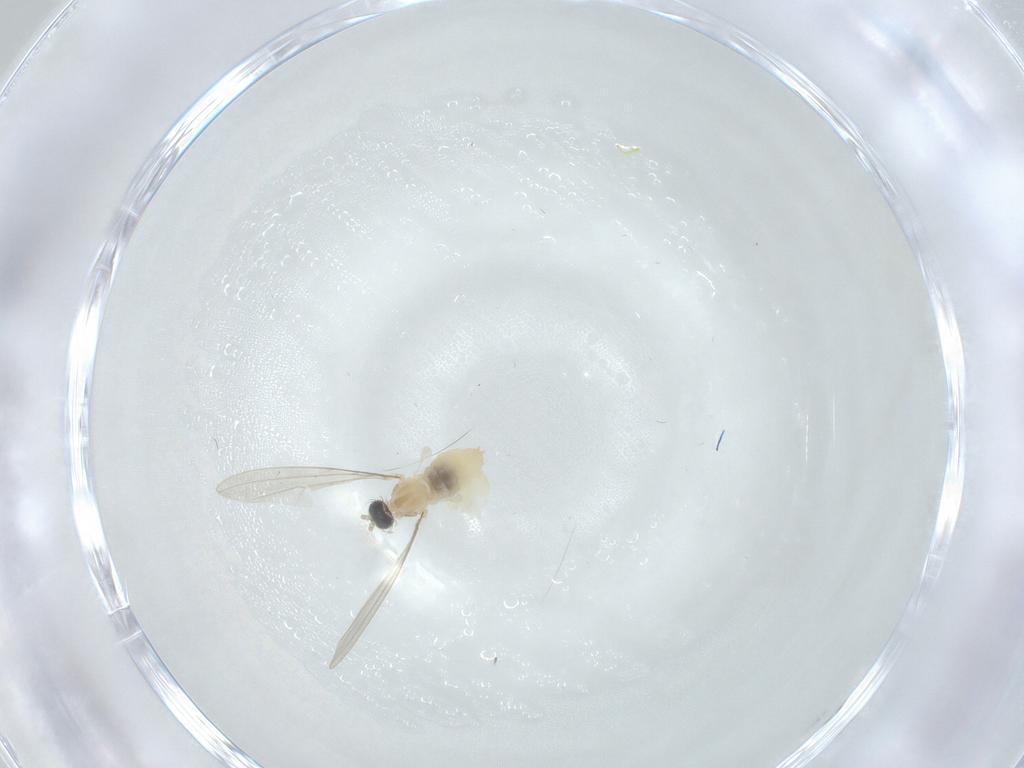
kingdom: Animalia
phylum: Arthropoda
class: Insecta
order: Diptera
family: Cecidomyiidae
